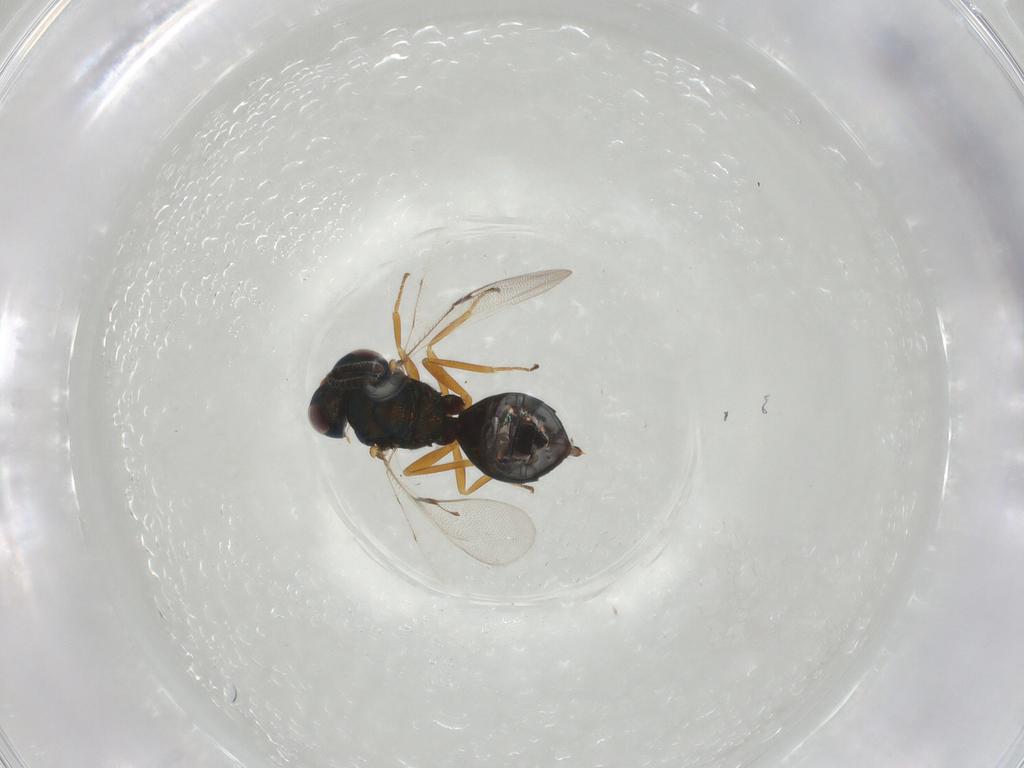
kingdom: Animalia
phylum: Arthropoda
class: Insecta
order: Hymenoptera
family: Pteromalidae
